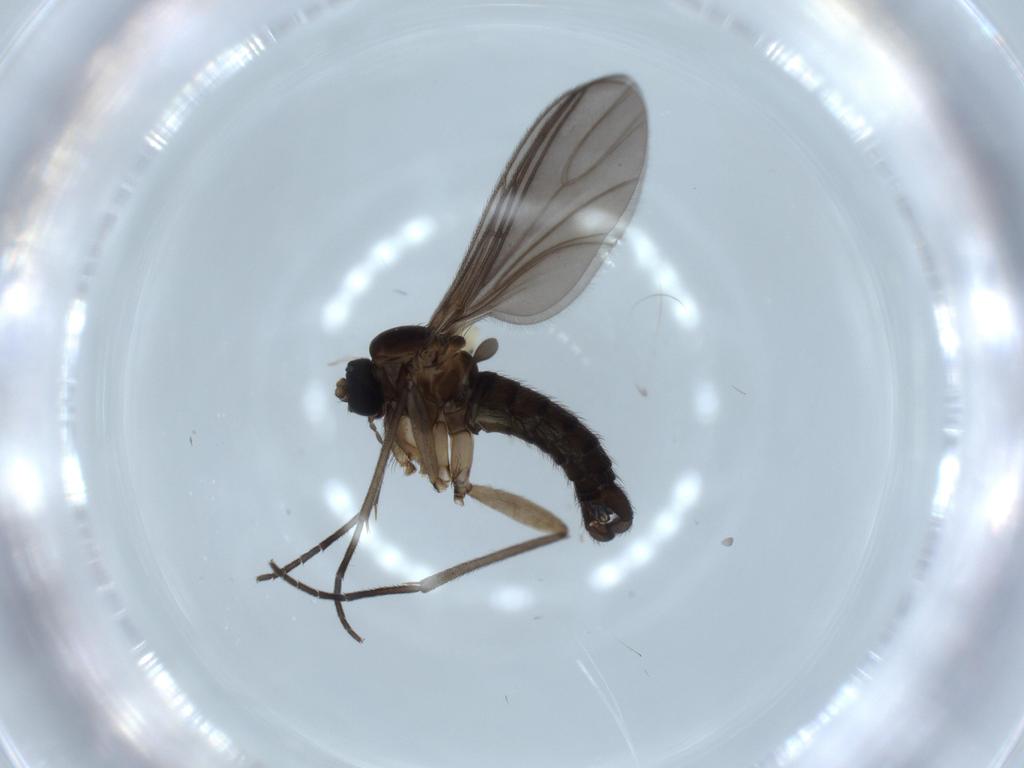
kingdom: Animalia
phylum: Arthropoda
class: Insecta
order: Diptera
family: Sciaridae
